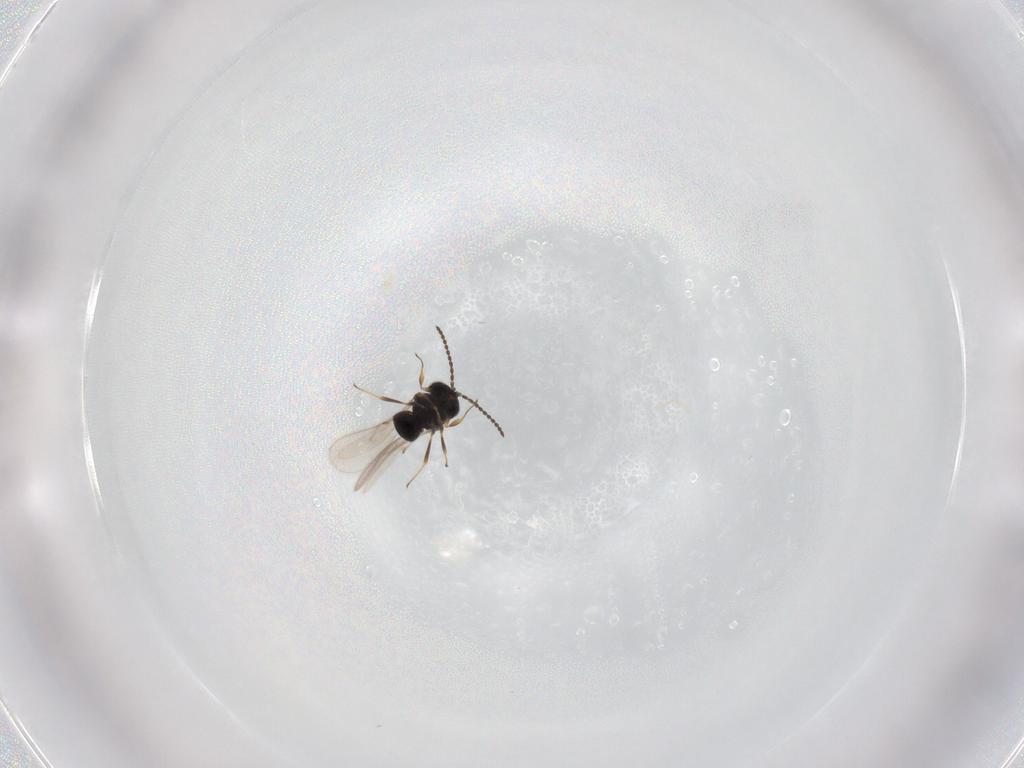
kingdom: Animalia
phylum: Arthropoda
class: Insecta
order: Hymenoptera
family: Scelionidae
